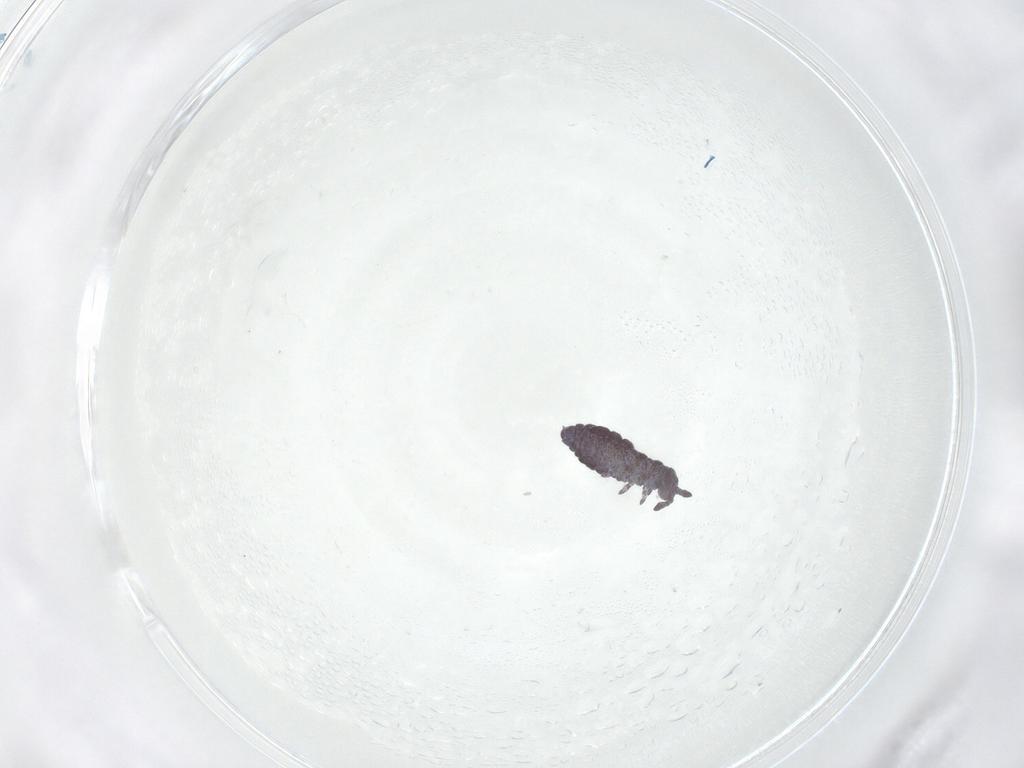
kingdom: Animalia
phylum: Arthropoda
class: Collembola
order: Poduromorpha
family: Hypogastruridae
